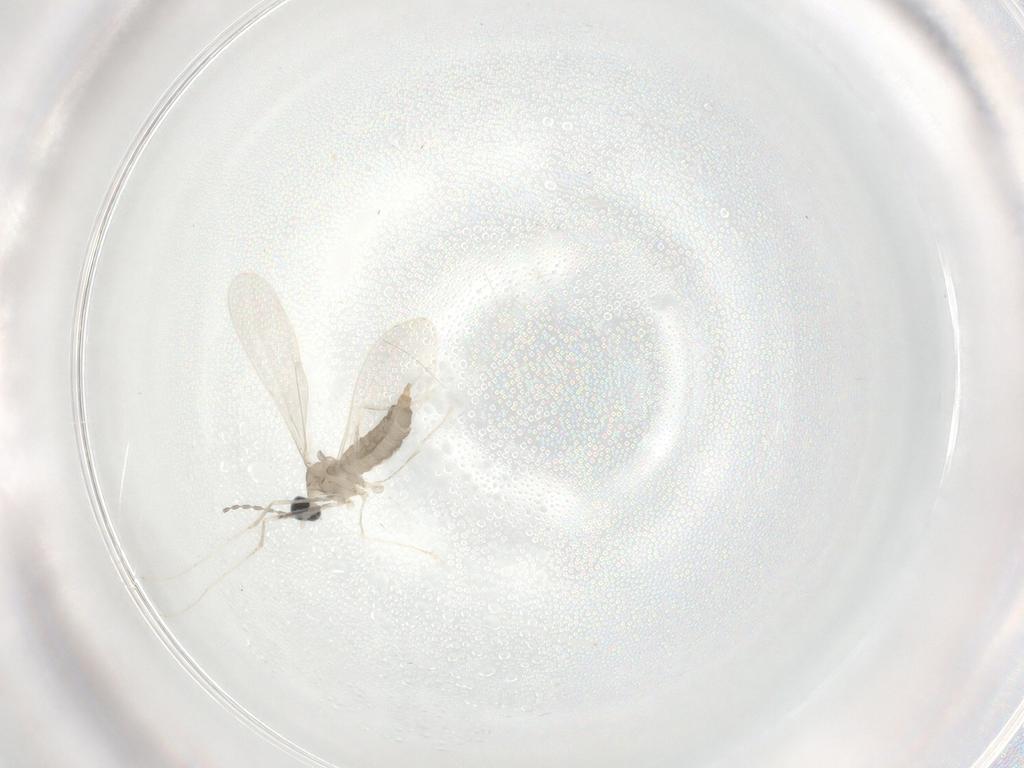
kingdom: Animalia
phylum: Arthropoda
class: Insecta
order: Diptera
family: Cecidomyiidae
